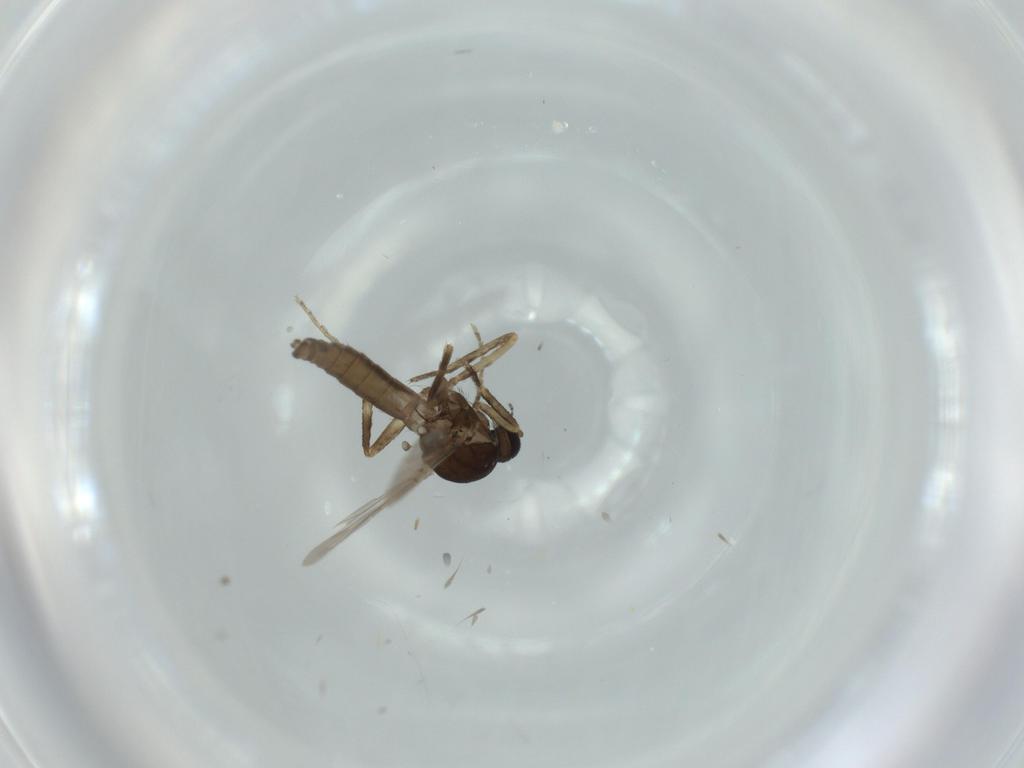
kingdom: Animalia
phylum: Arthropoda
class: Insecta
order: Diptera
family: Ceratopogonidae
